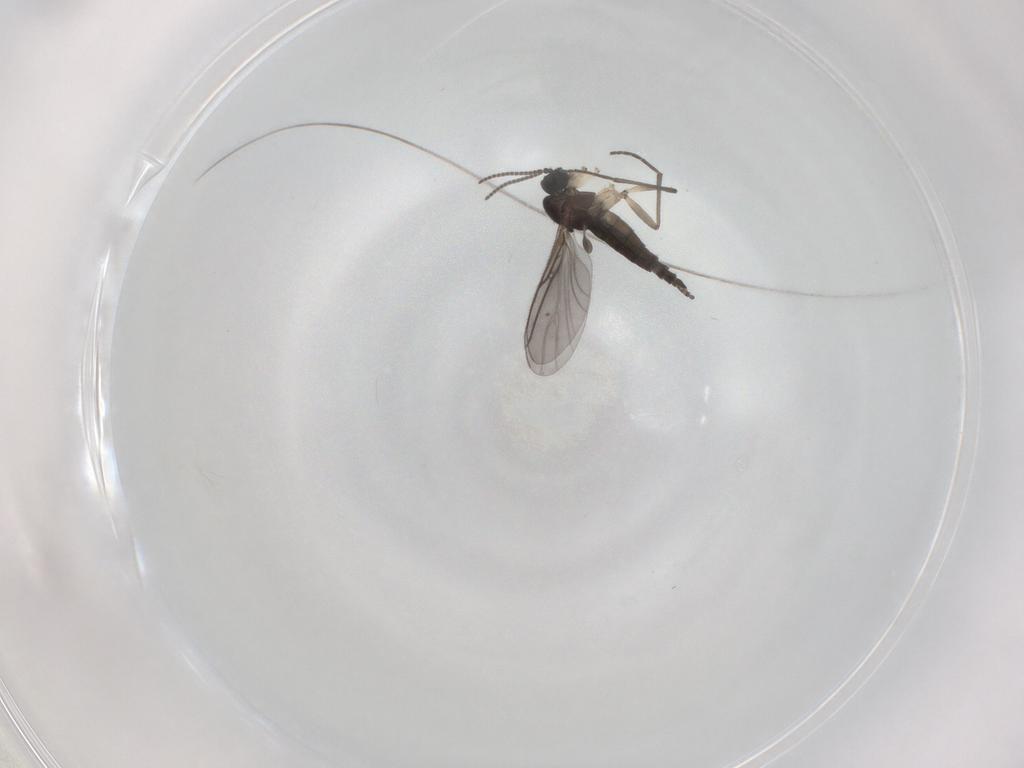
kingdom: Animalia
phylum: Arthropoda
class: Insecta
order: Diptera
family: Sciaridae
